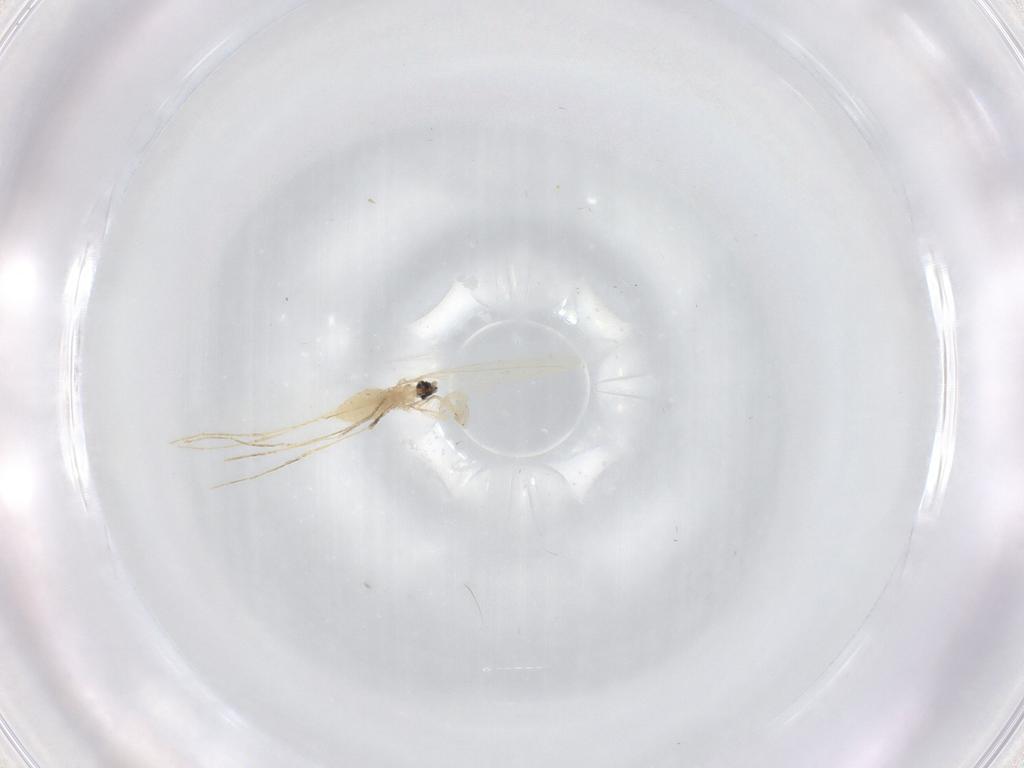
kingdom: Animalia
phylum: Arthropoda
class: Insecta
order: Diptera
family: Cecidomyiidae
